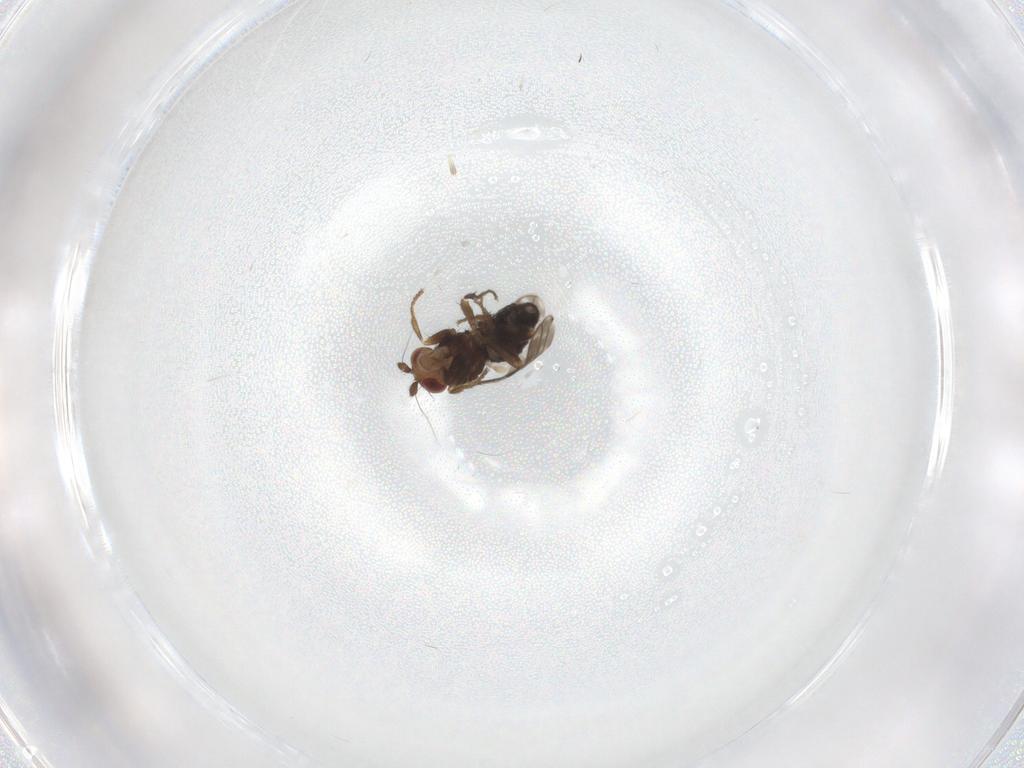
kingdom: Animalia
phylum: Arthropoda
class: Insecta
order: Diptera
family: Sphaeroceridae
